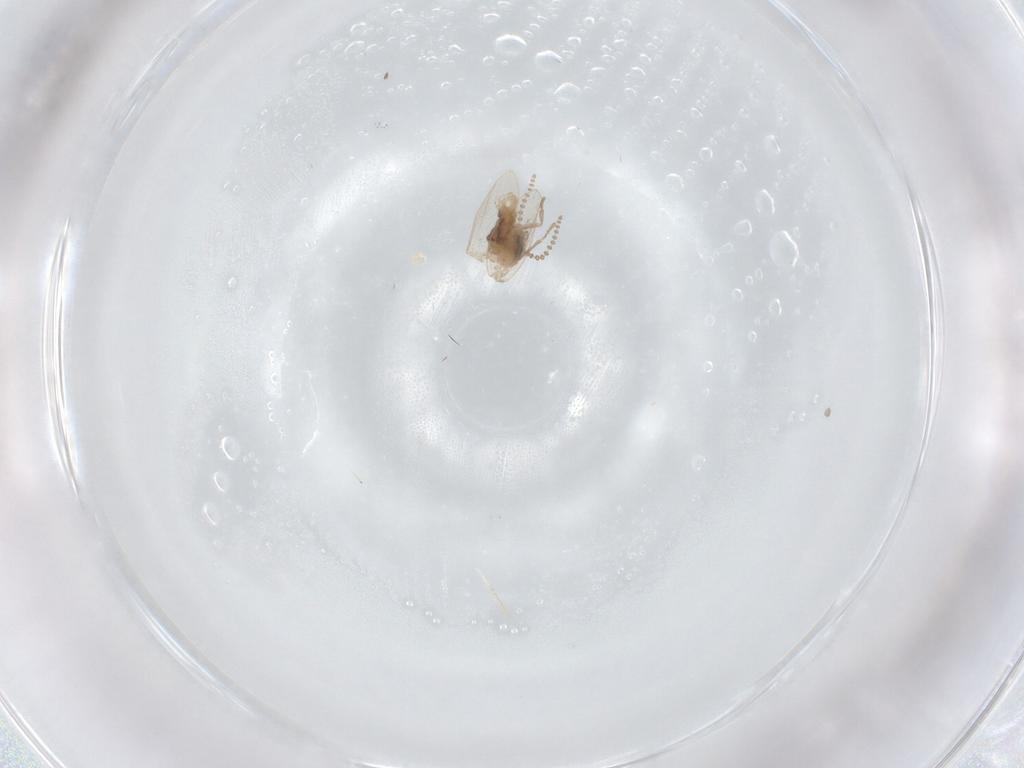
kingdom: Animalia
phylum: Arthropoda
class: Insecta
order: Diptera
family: Psychodidae
